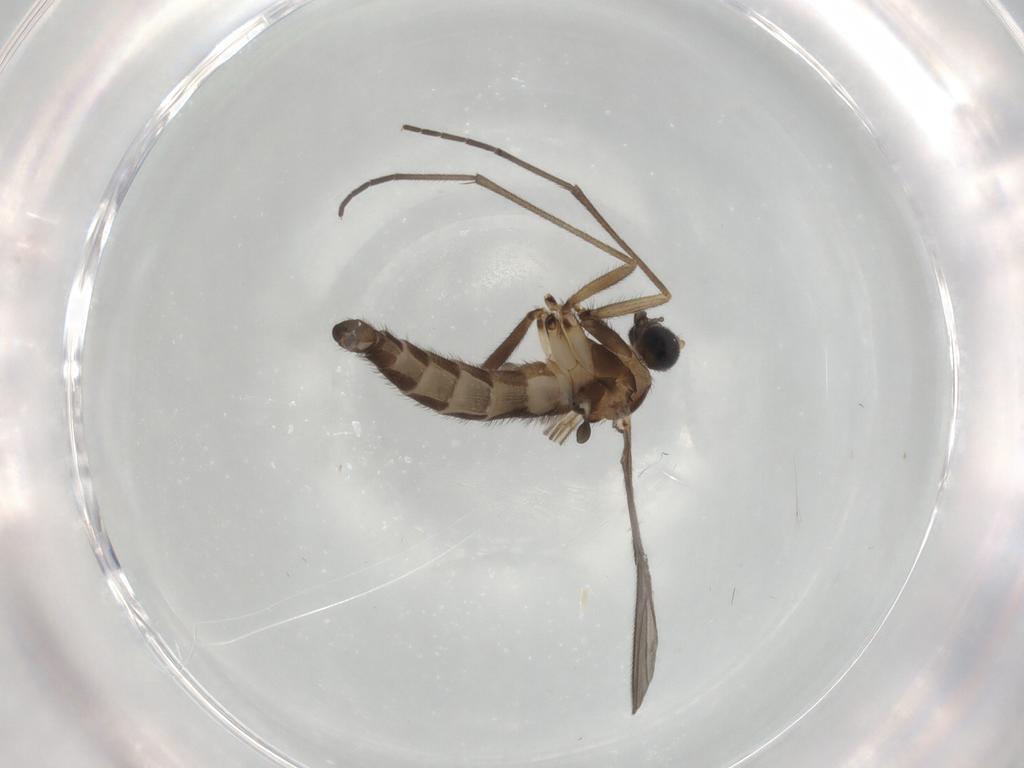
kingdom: Animalia
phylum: Arthropoda
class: Insecta
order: Diptera
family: Sciaridae
